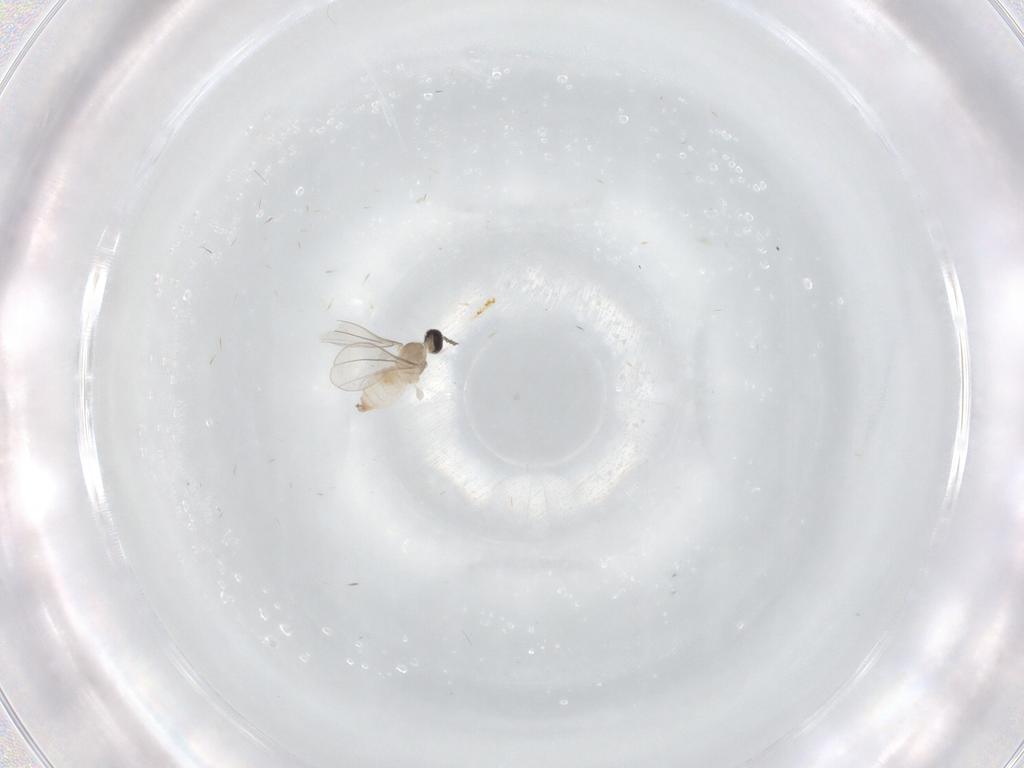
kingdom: Animalia
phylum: Arthropoda
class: Insecta
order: Diptera
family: Cecidomyiidae
